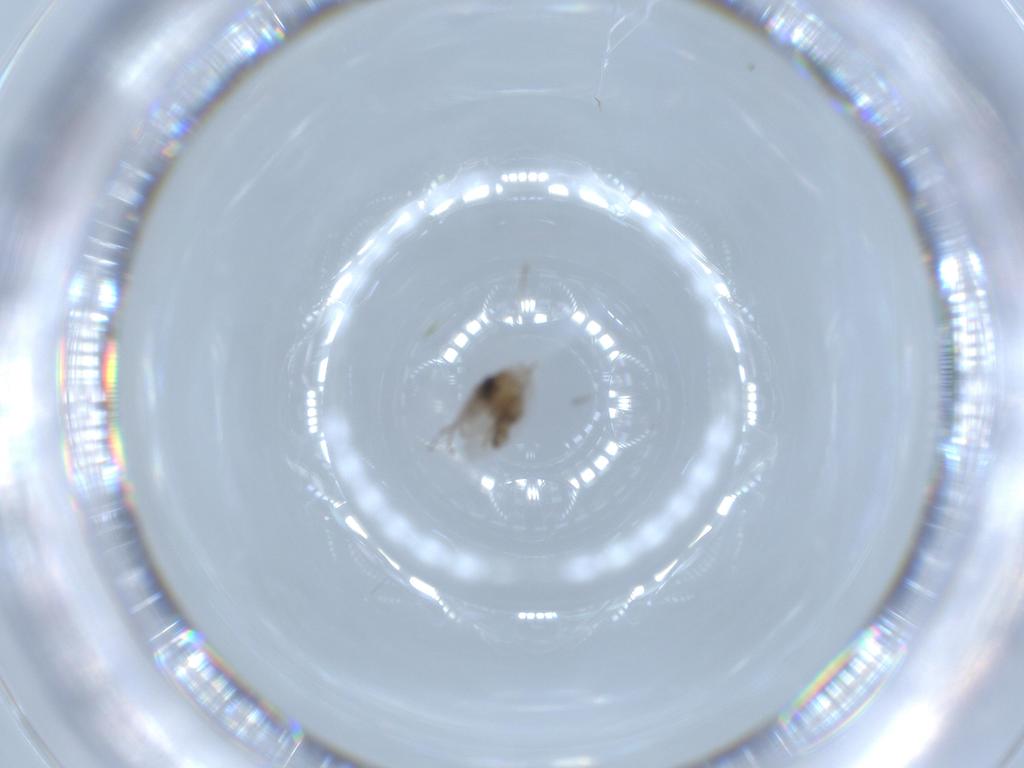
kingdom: Animalia
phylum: Arthropoda
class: Insecta
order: Diptera
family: Psychodidae
